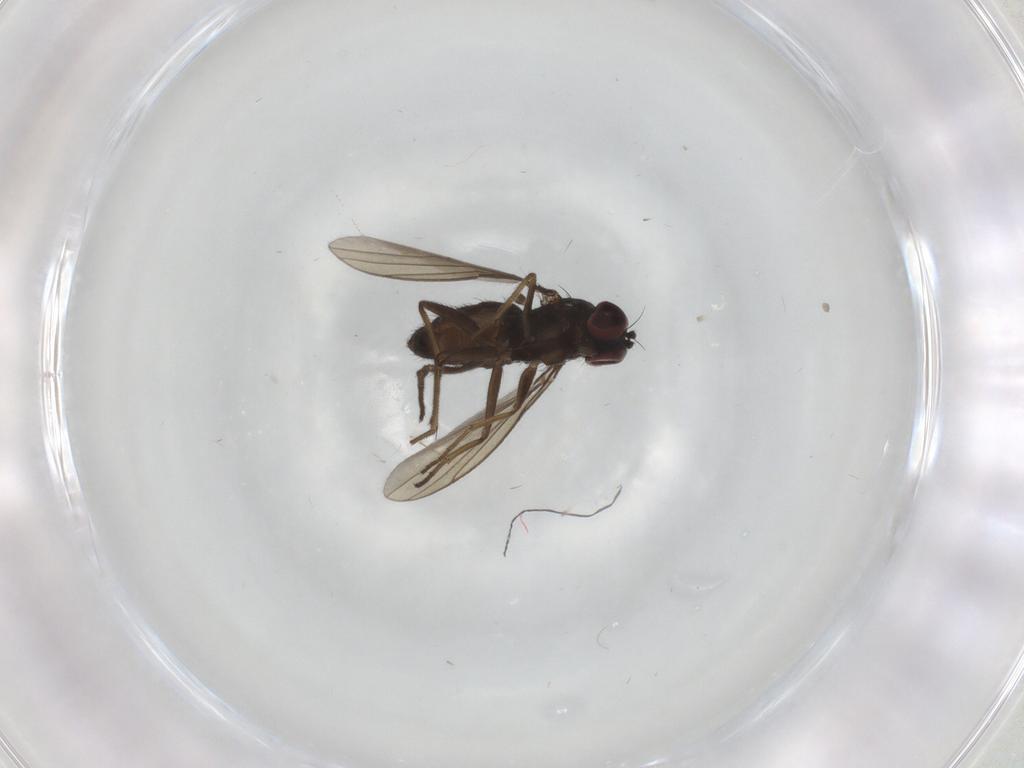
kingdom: Animalia
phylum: Arthropoda
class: Insecta
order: Diptera
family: Dolichopodidae
